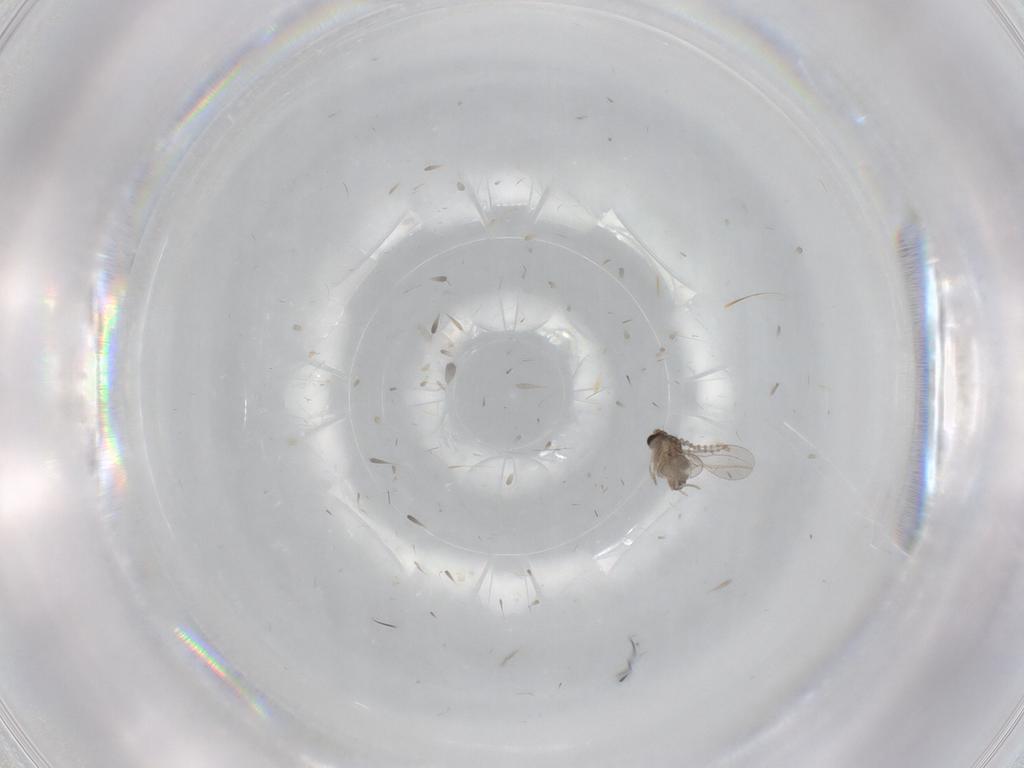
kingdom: Animalia
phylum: Arthropoda
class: Insecta
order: Diptera
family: Cecidomyiidae
